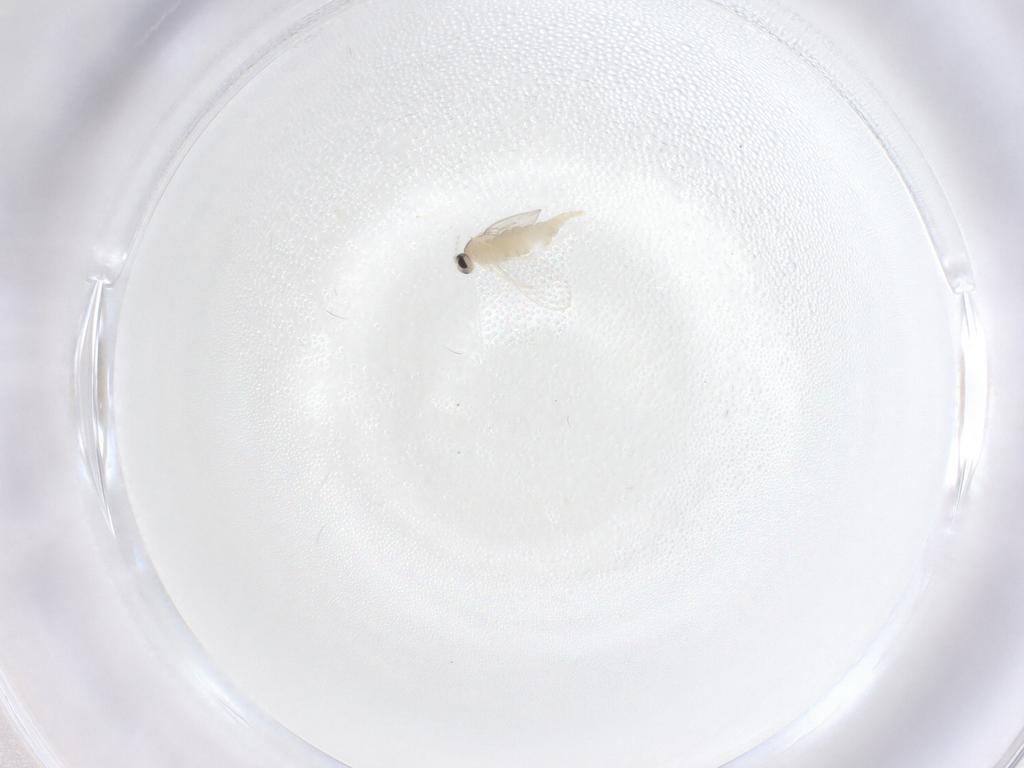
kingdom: Animalia
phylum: Arthropoda
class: Insecta
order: Diptera
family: Cecidomyiidae
